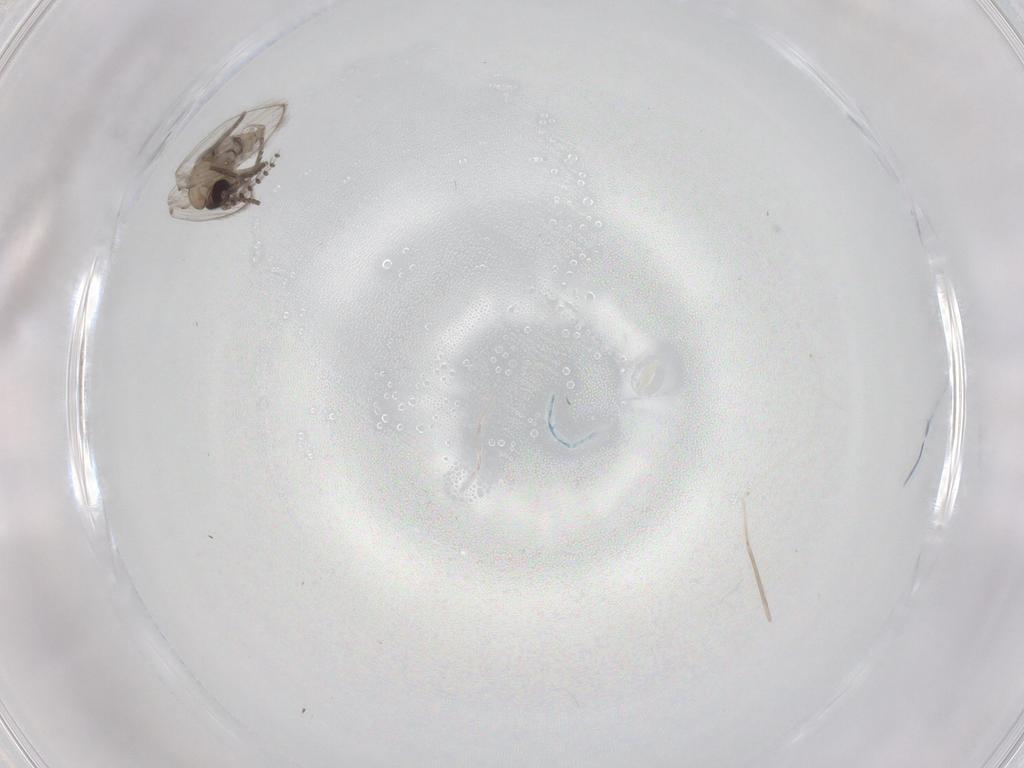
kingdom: Animalia
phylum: Arthropoda
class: Insecta
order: Diptera
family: Psychodidae
